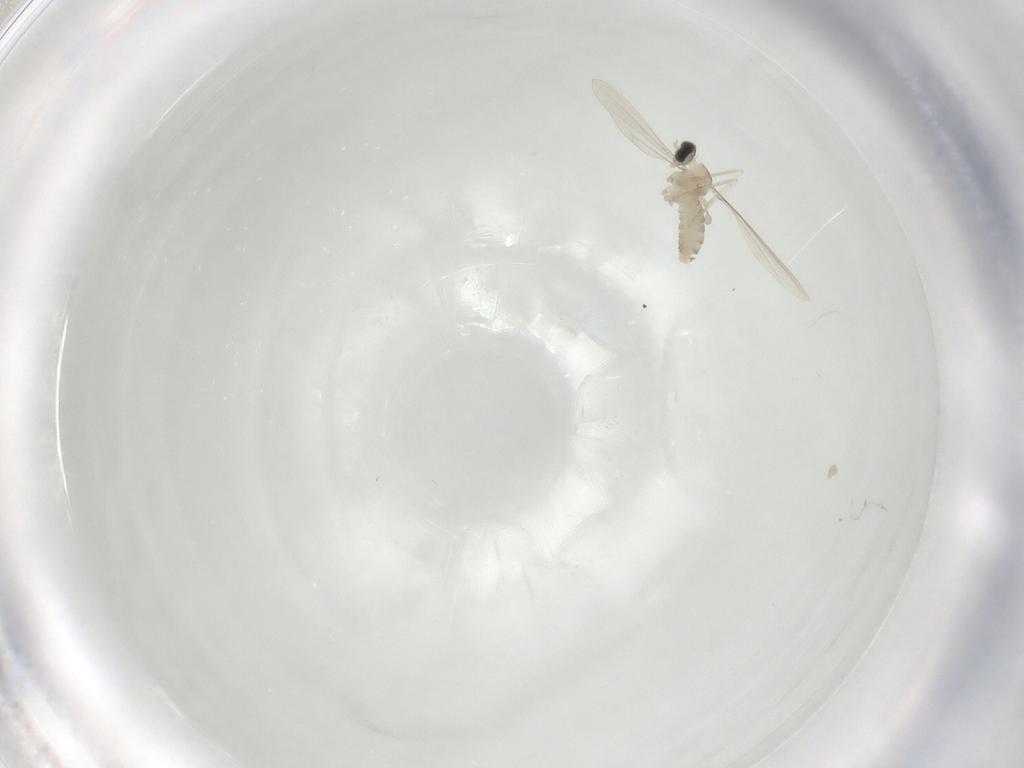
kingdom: Animalia
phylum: Arthropoda
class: Insecta
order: Diptera
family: Cecidomyiidae
